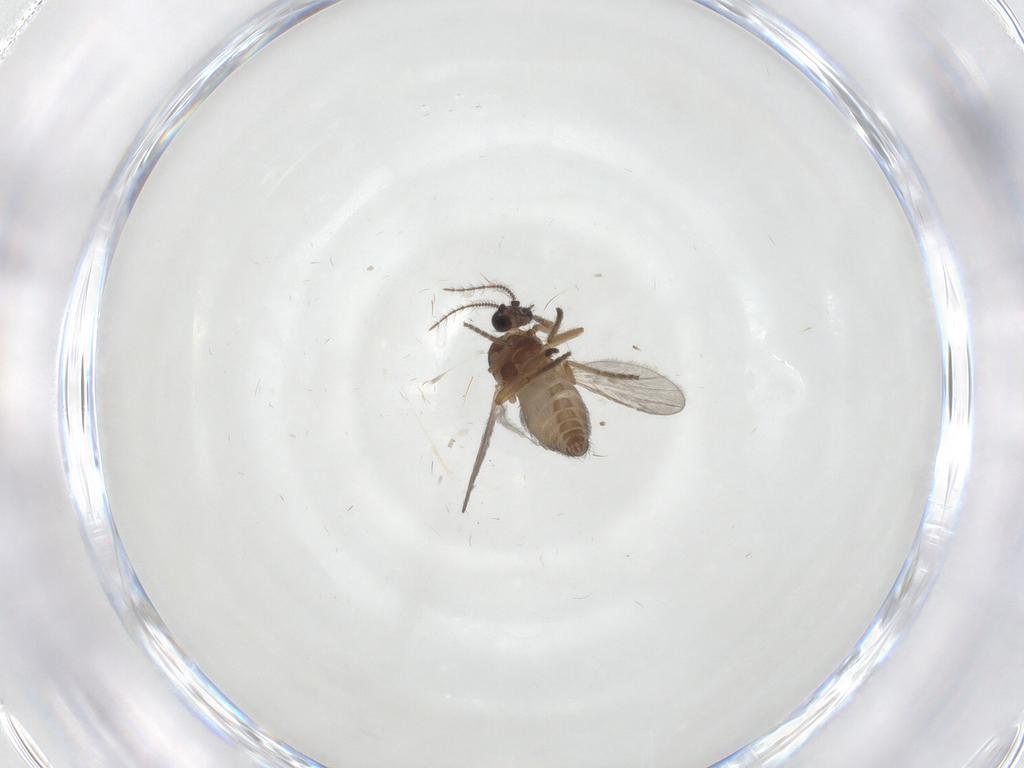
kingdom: Animalia
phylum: Arthropoda
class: Insecta
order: Diptera
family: Ceratopogonidae
